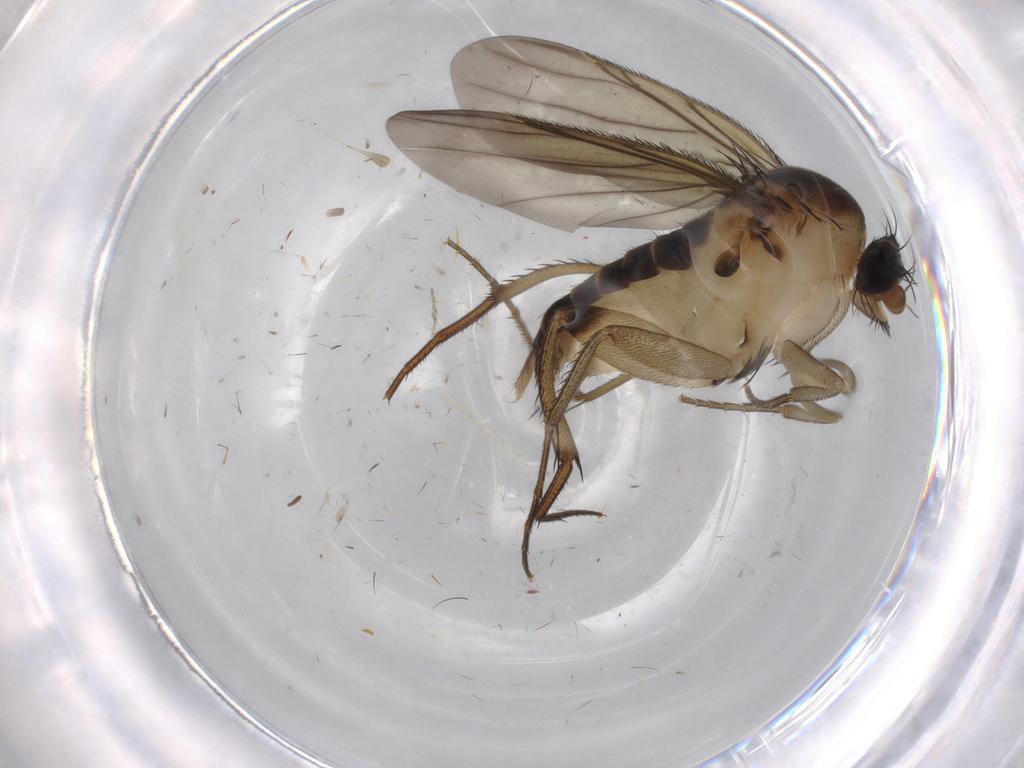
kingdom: Animalia
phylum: Arthropoda
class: Insecta
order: Diptera
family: Phoridae
